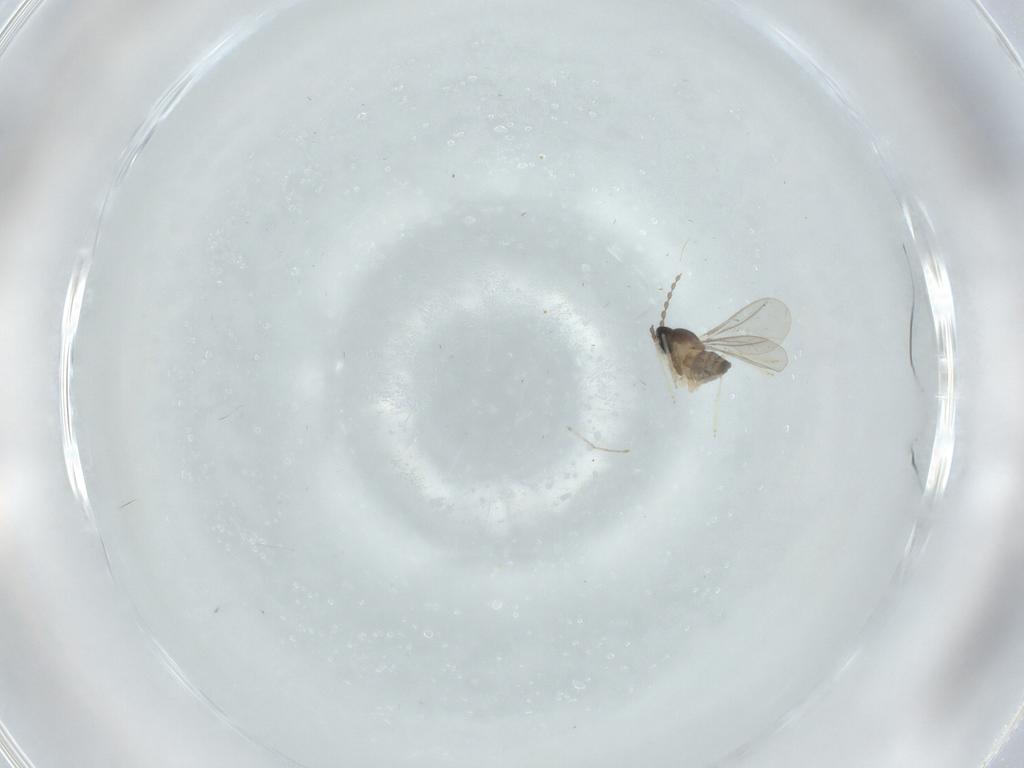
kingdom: Animalia
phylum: Arthropoda
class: Insecta
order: Diptera
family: Cecidomyiidae
